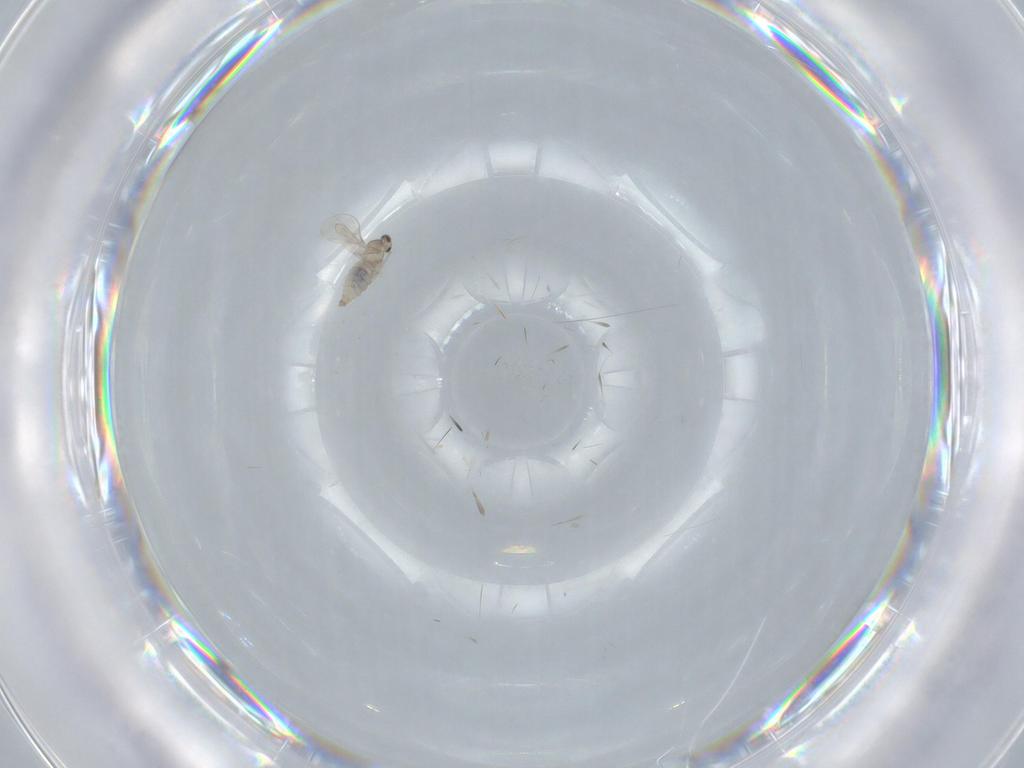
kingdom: Animalia
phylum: Arthropoda
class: Insecta
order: Diptera
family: Cecidomyiidae
